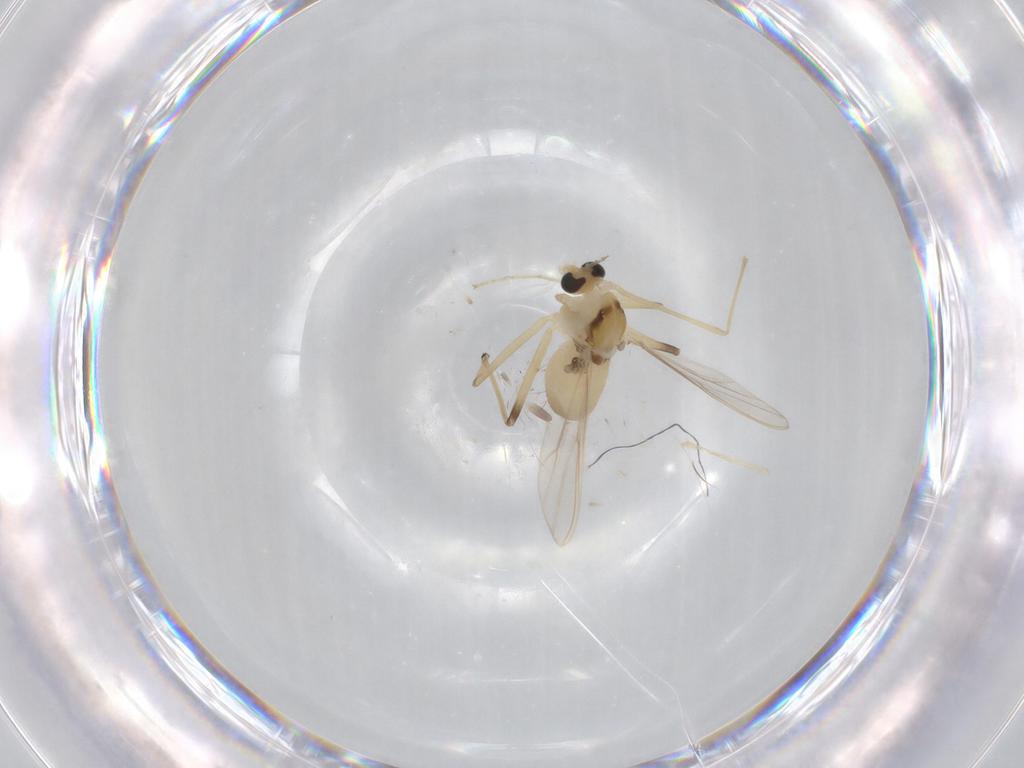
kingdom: Animalia
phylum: Arthropoda
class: Insecta
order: Diptera
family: Chironomidae
